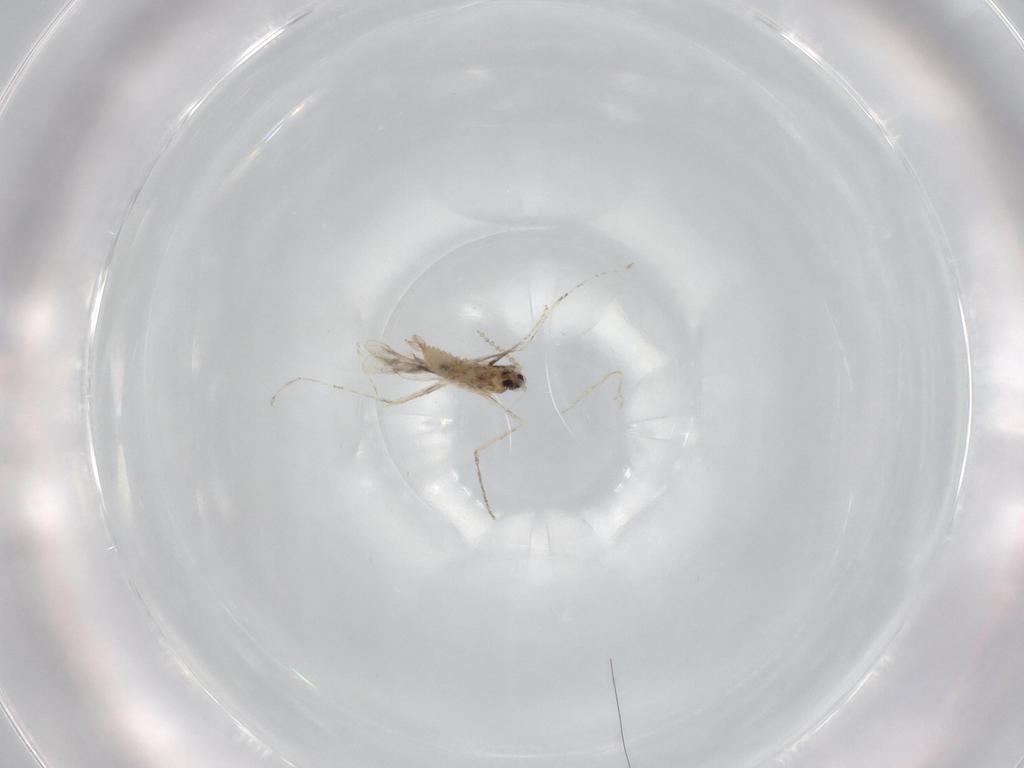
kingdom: Animalia
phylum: Arthropoda
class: Insecta
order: Diptera
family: Cecidomyiidae
